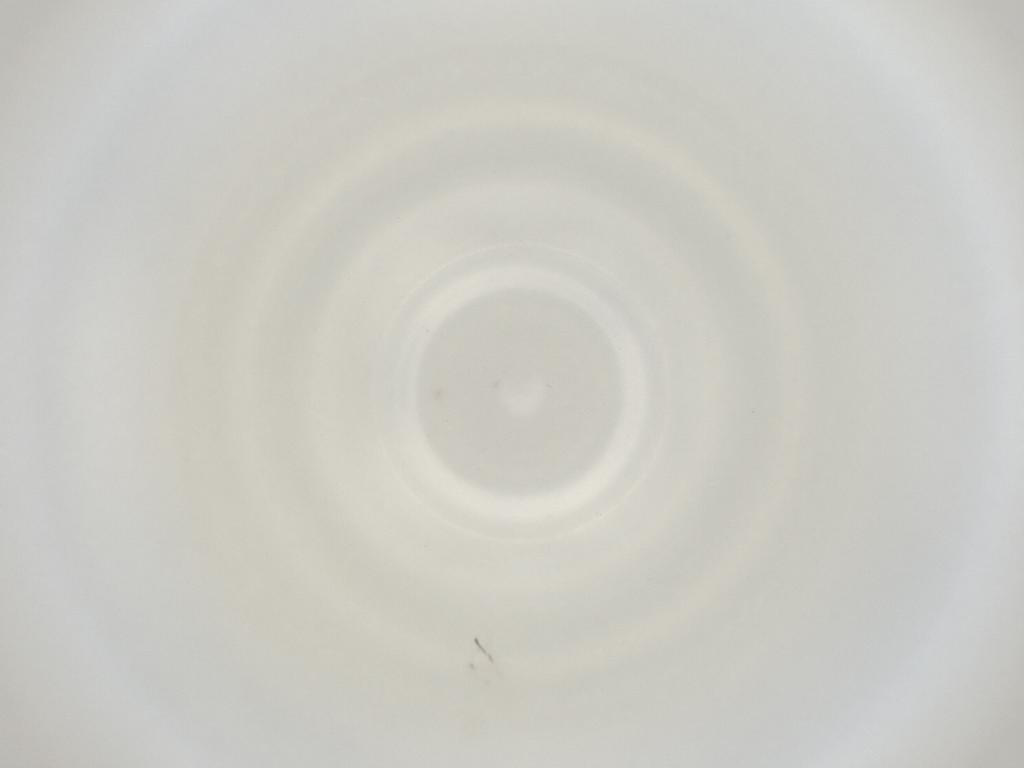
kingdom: Animalia
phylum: Arthropoda
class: Insecta
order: Diptera
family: Cecidomyiidae
